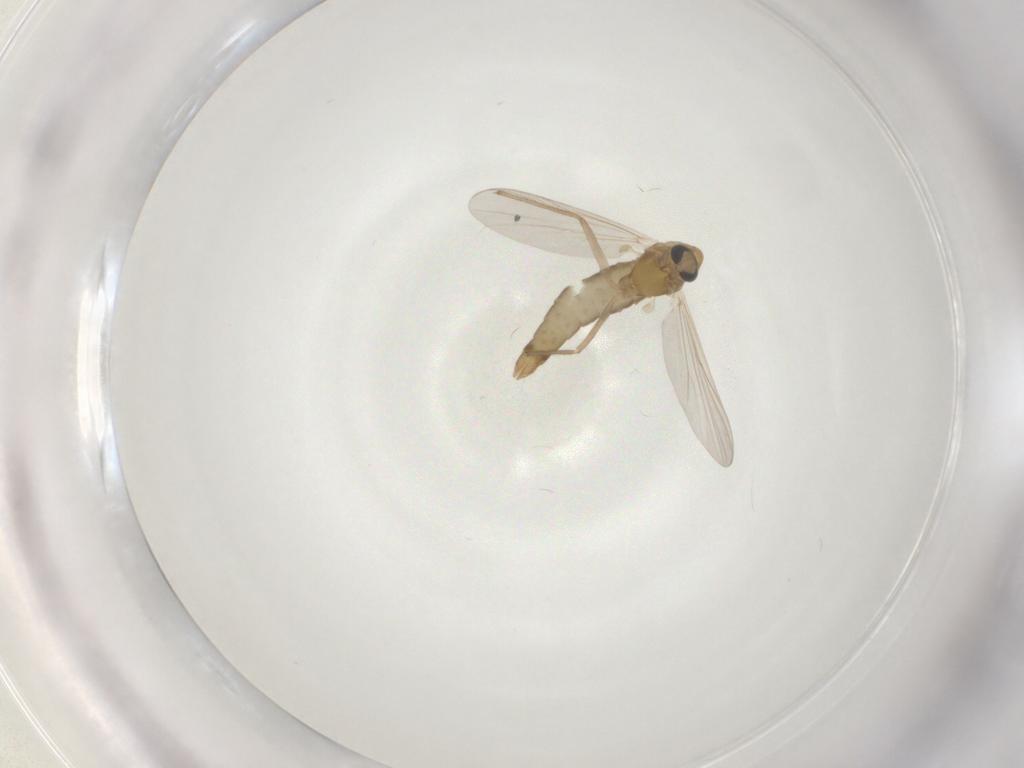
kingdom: Animalia
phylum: Arthropoda
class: Insecta
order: Diptera
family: Chironomidae
